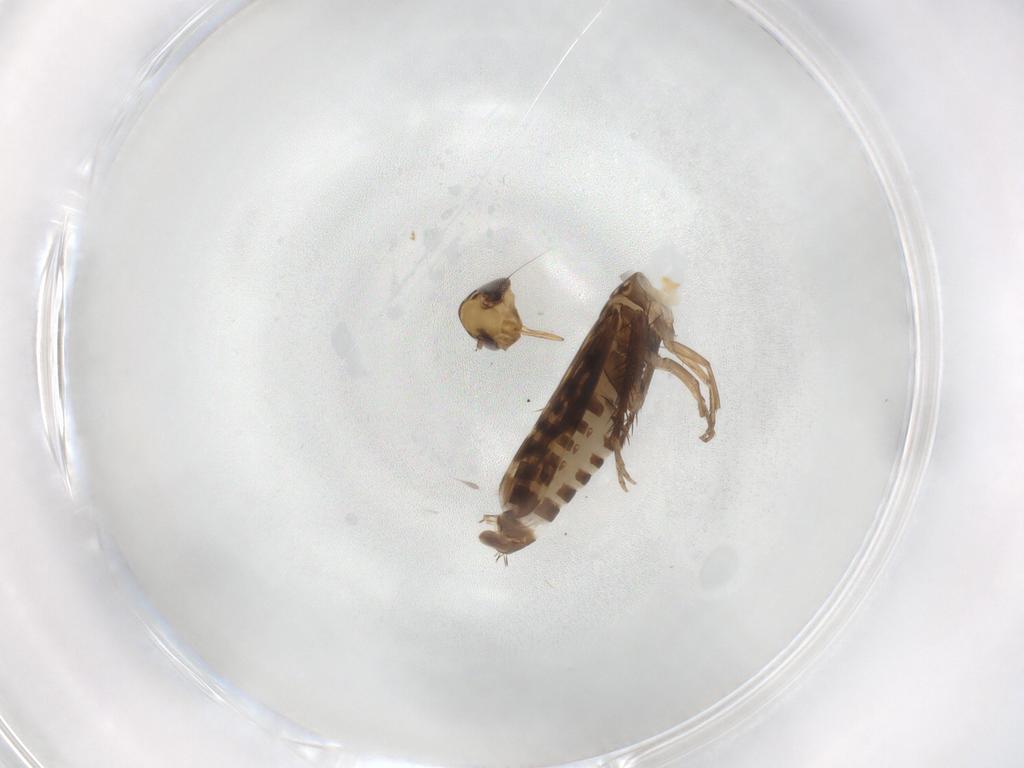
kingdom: Animalia
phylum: Arthropoda
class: Insecta
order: Hemiptera
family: Cicadellidae
